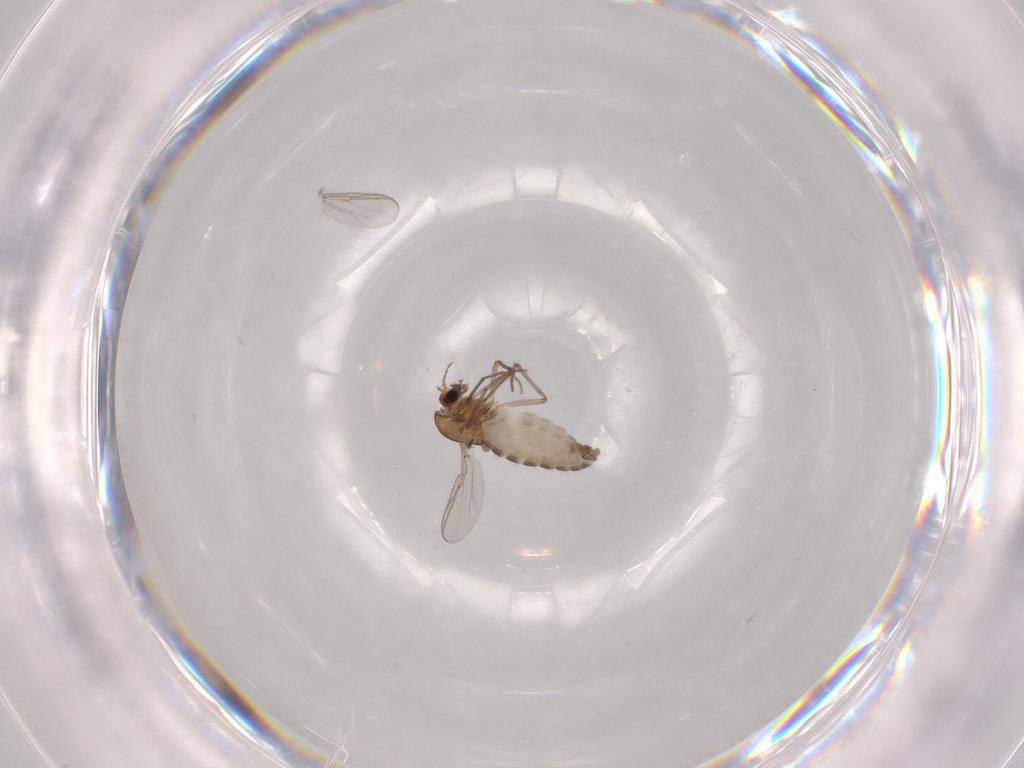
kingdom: Animalia
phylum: Arthropoda
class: Insecta
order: Diptera
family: Chironomidae
